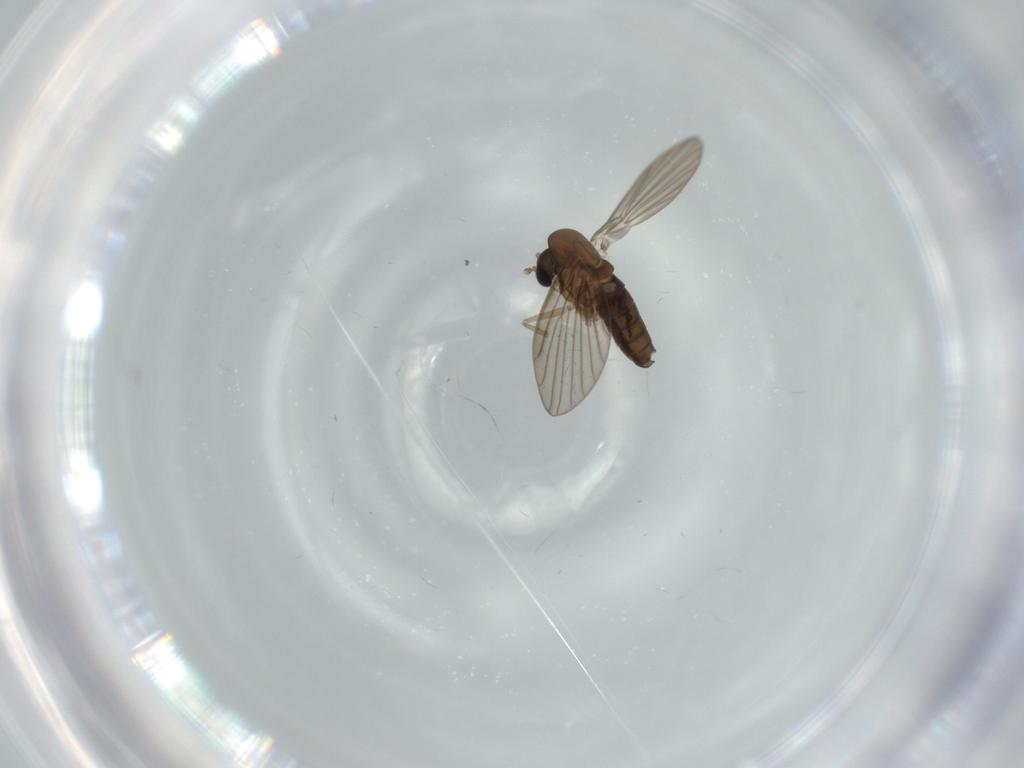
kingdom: Animalia
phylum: Arthropoda
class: Insecta
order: Diptera
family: Psychodidae
